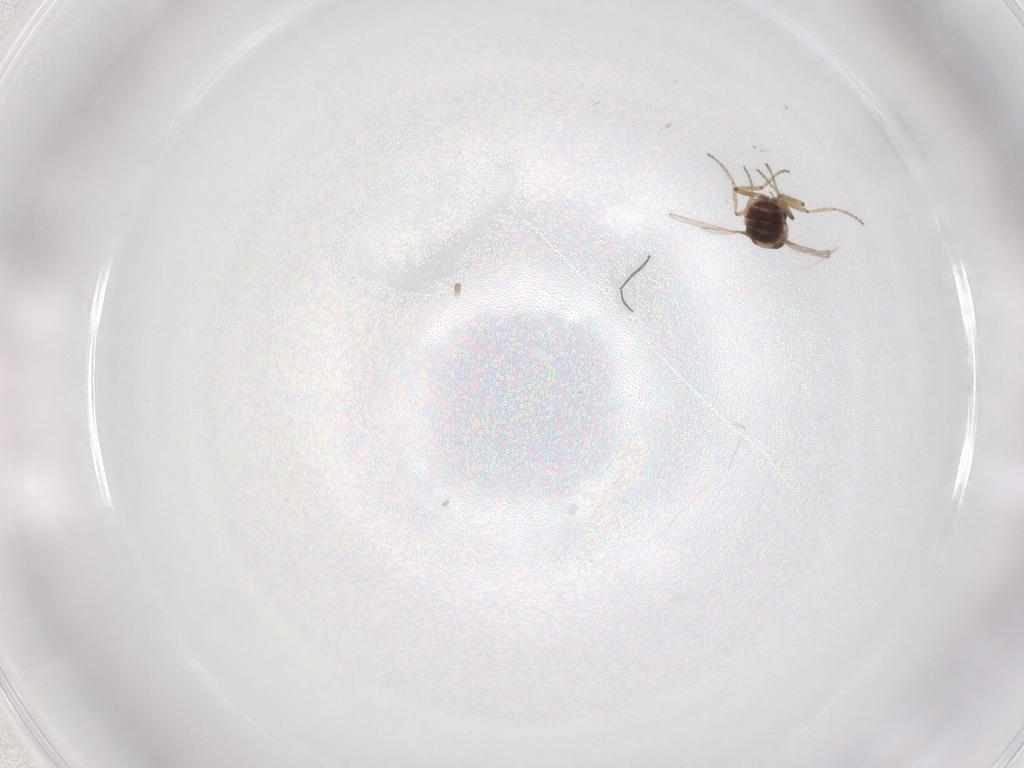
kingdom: Animalia
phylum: Arthropoda
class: Insecta
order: Diptera
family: Ceratopogonidae
